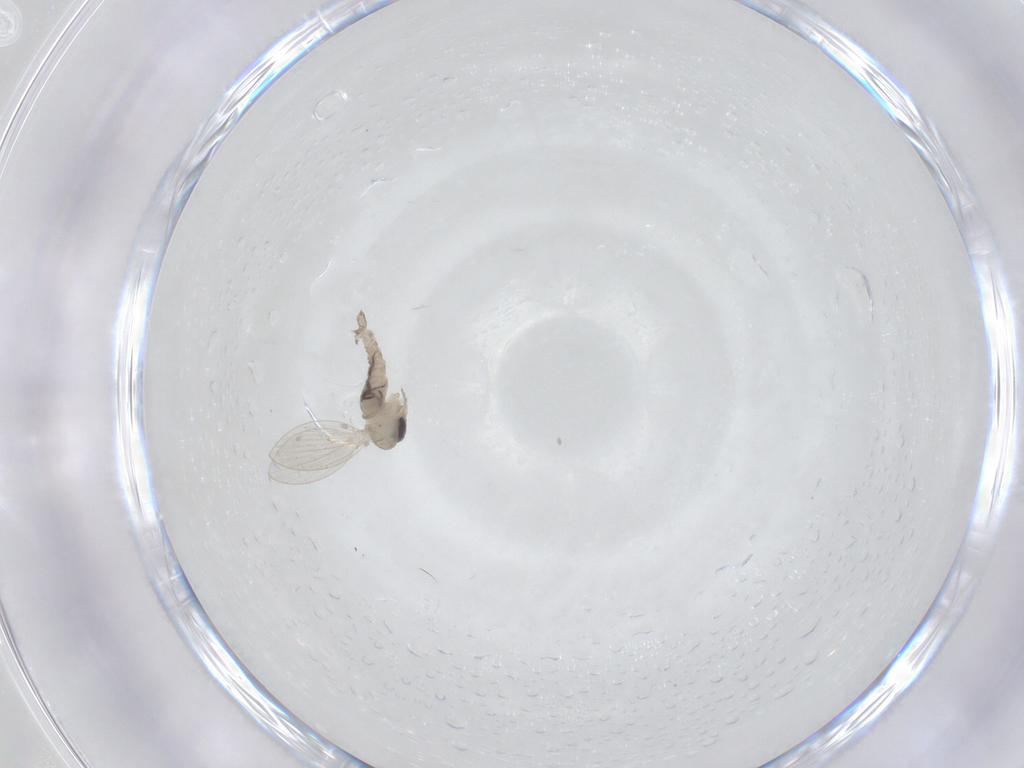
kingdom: Animalia
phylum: Arthropoda
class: Insecta
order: Diptera
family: Psychodidae
